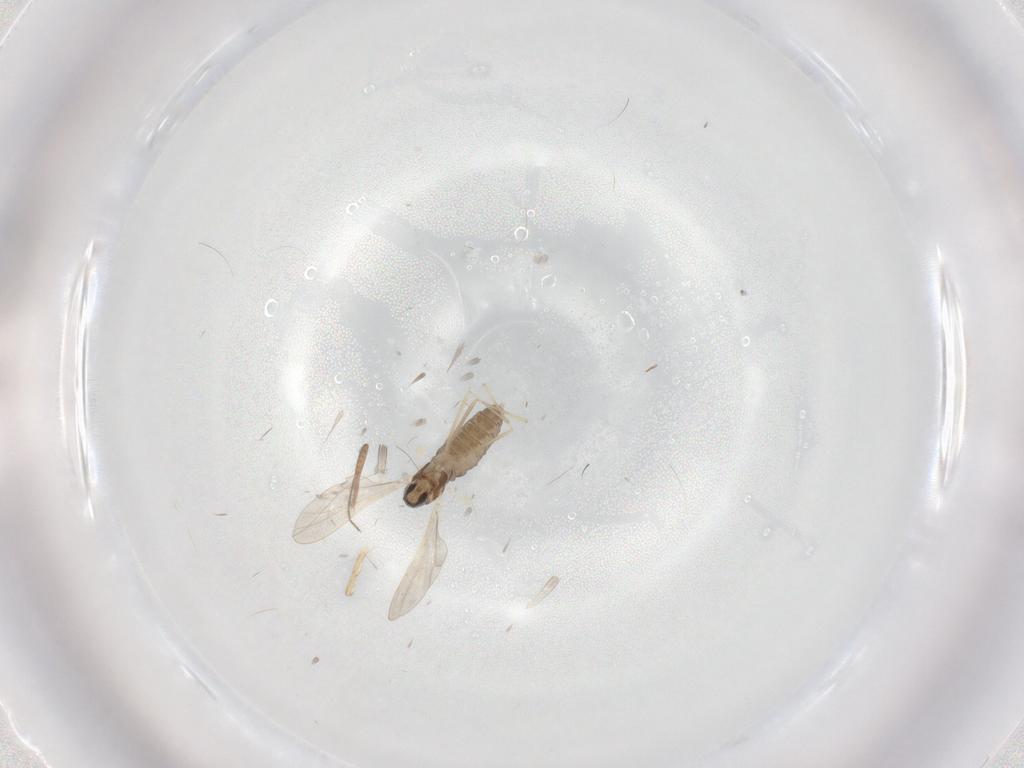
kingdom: Animalia
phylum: Arthropoda
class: Insecta
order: Diptera
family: Cecidomyiidae
